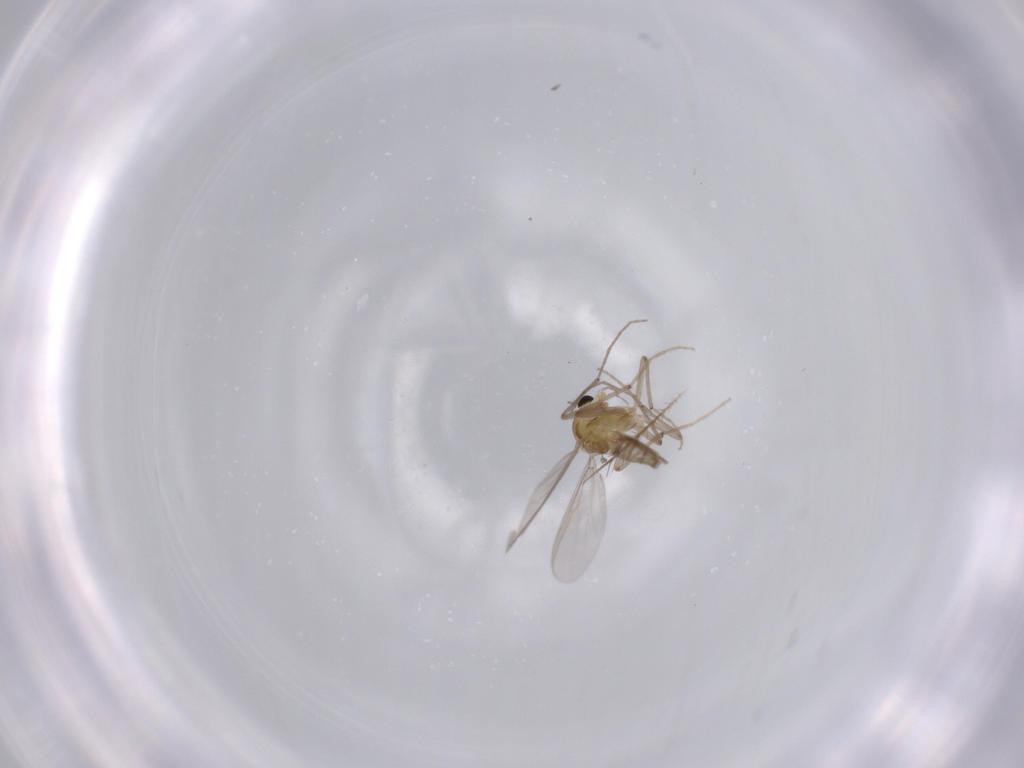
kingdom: Animalia
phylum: Arthropoda
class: Insecta
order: Diptera
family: Chironomidae
